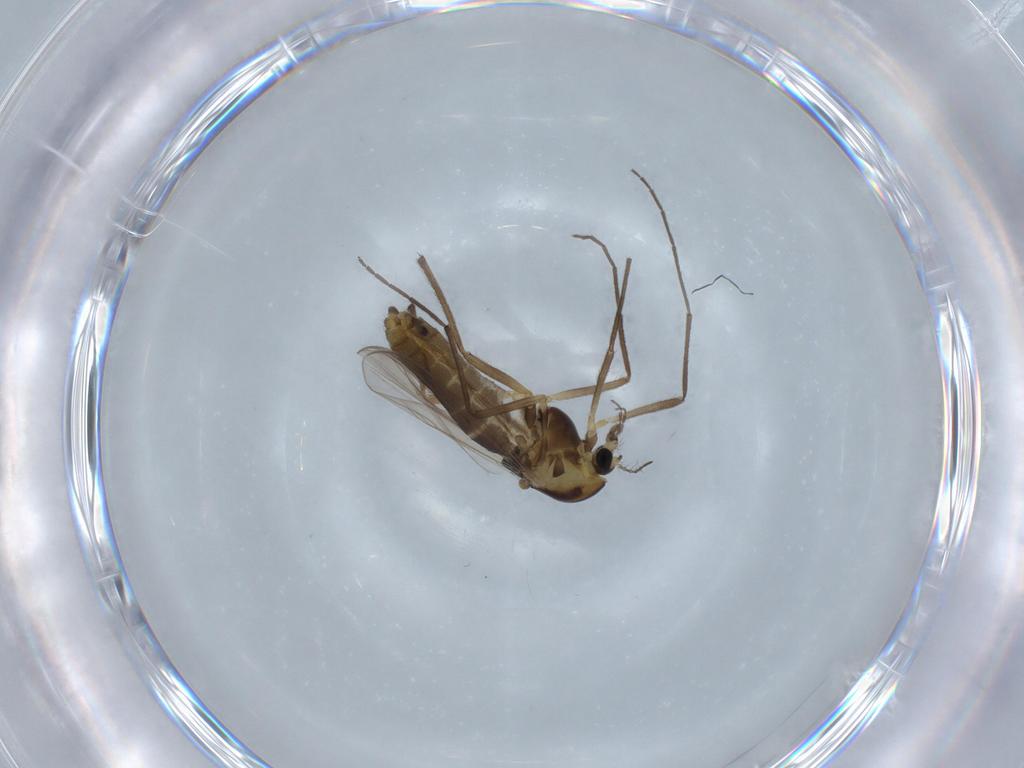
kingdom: Animalia
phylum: Arthropoda
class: Insecta
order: Diptera
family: Chironomidae
